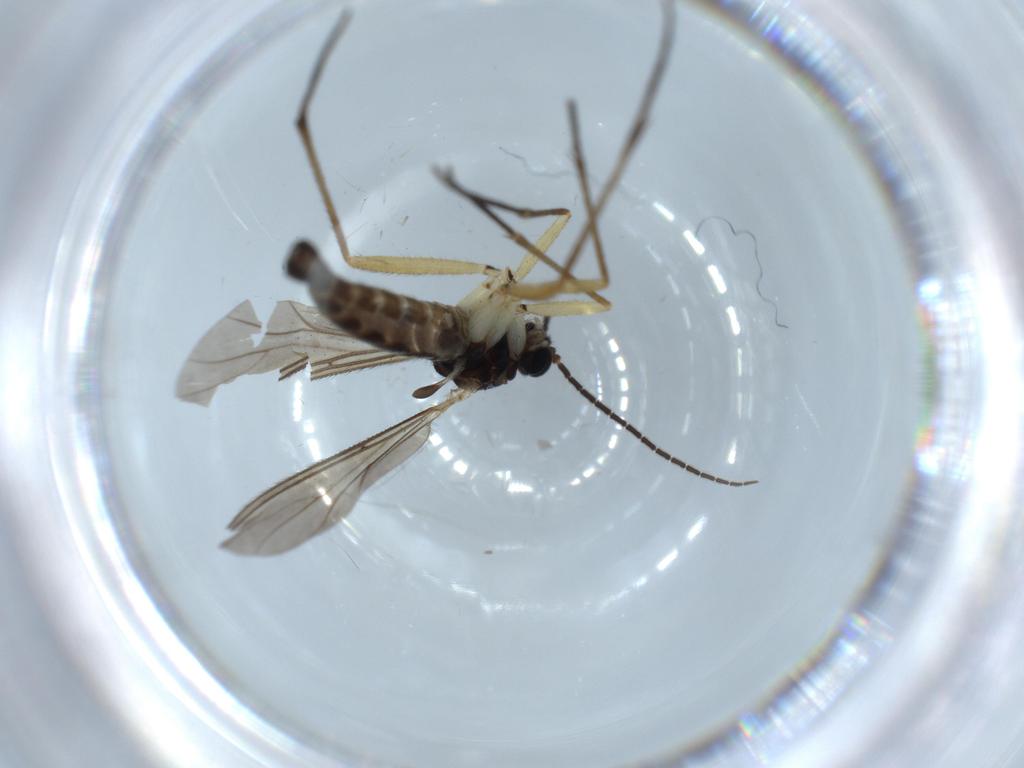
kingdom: Animalia
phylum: Arthropoda
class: Insecta
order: Diptera
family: Sciaridae
